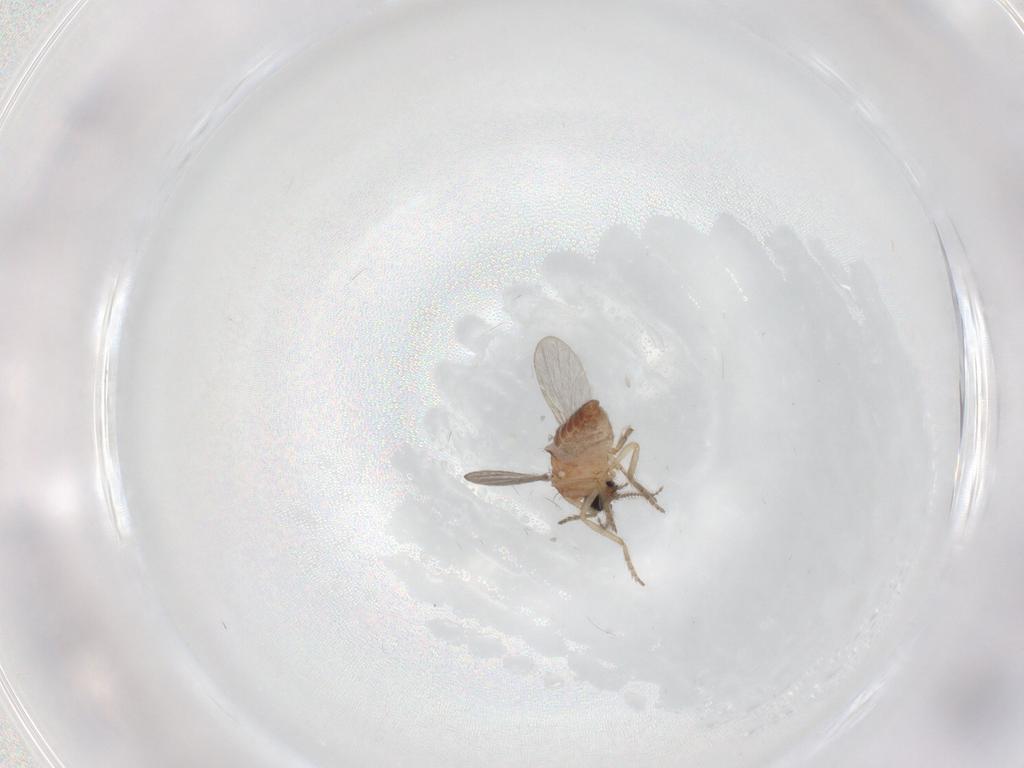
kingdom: Animalia
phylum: Arthropoda
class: Insecta
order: Diptera
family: Ceratopogonidae
